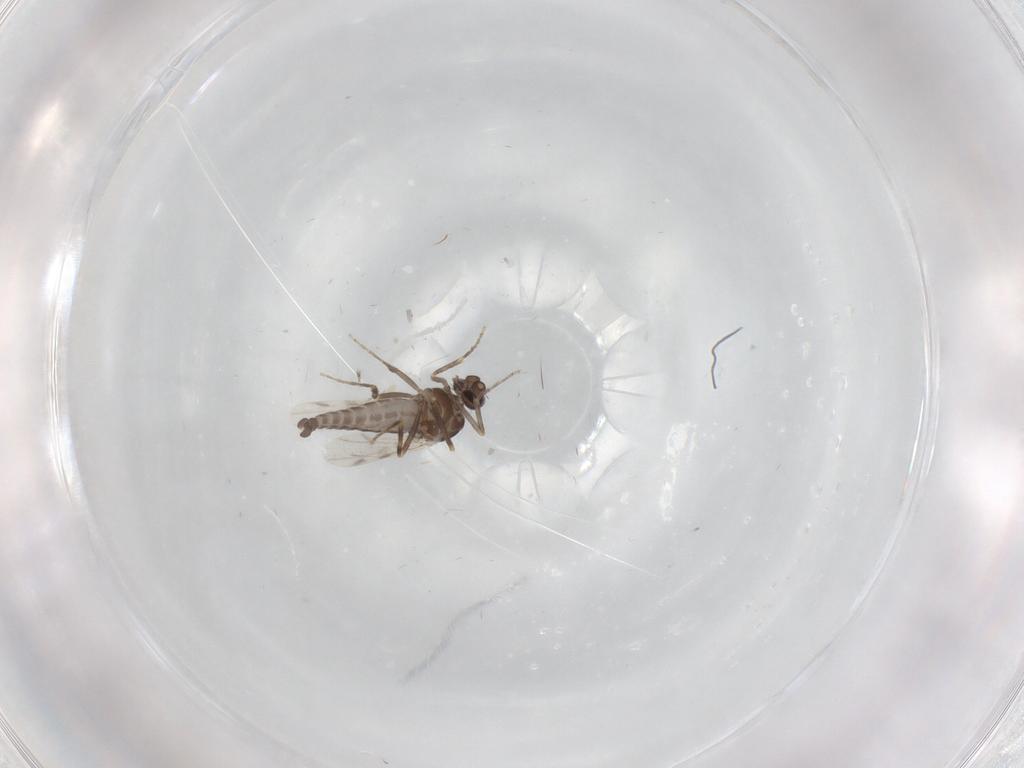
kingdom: Animalia
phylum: Arthropoda
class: Insecta
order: Diptera
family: Ceratopogonidae
